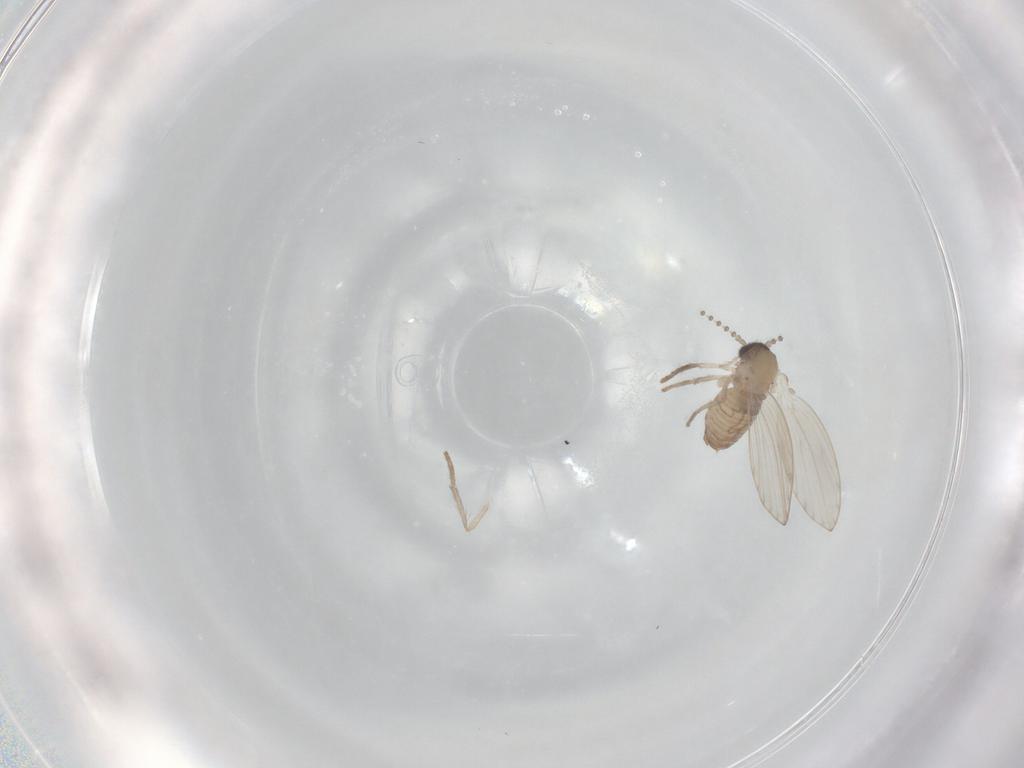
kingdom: Animalia
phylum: Arthropoda
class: Insecta
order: Diptera
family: Psychodidae
